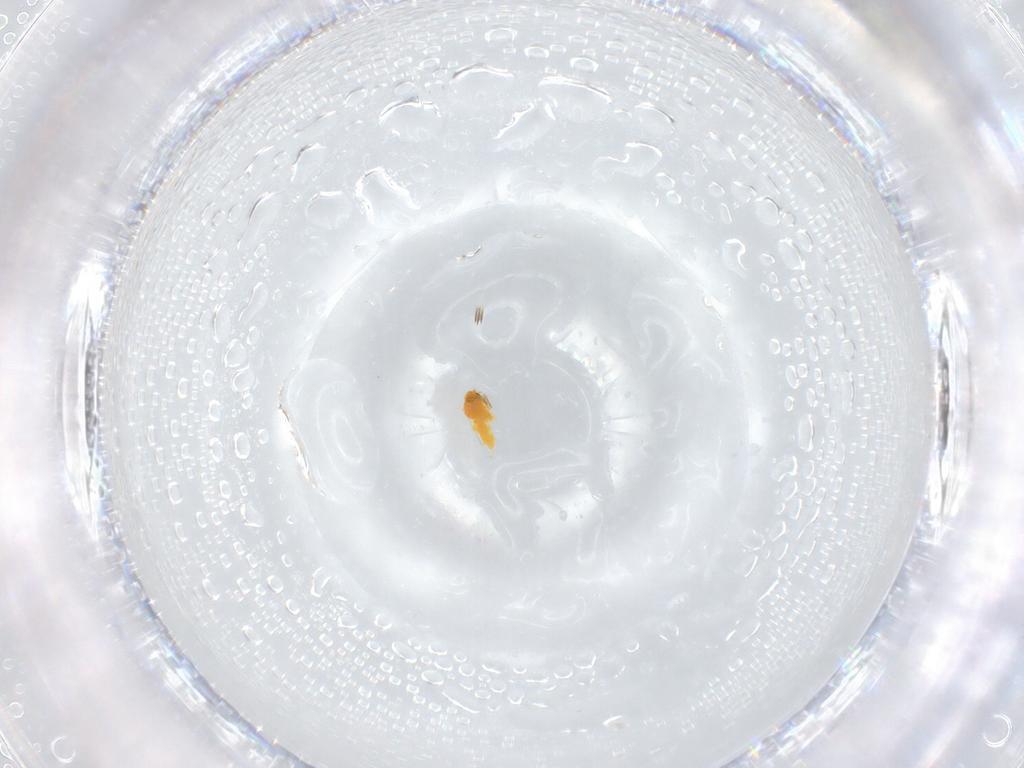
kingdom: Animalia
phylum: Arthropoda
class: Insecta
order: Hemiptera
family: Aleyrodidae
